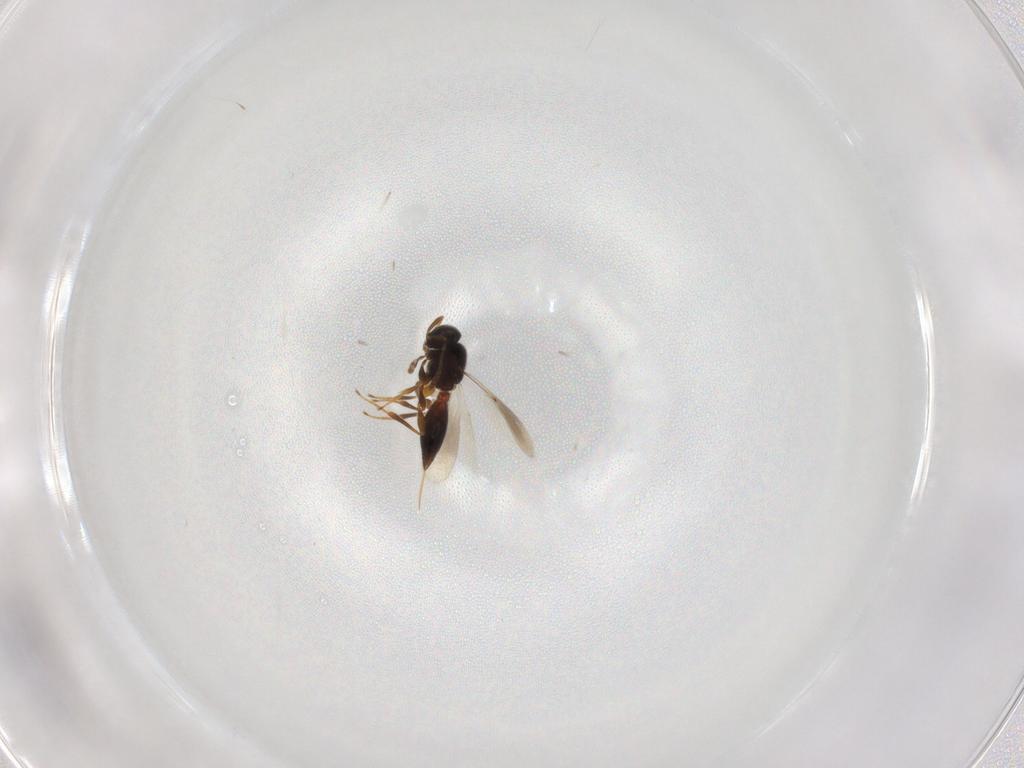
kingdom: Animalia
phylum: Arthropoda
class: Insecta
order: Hymenoptera
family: Platygastridae
